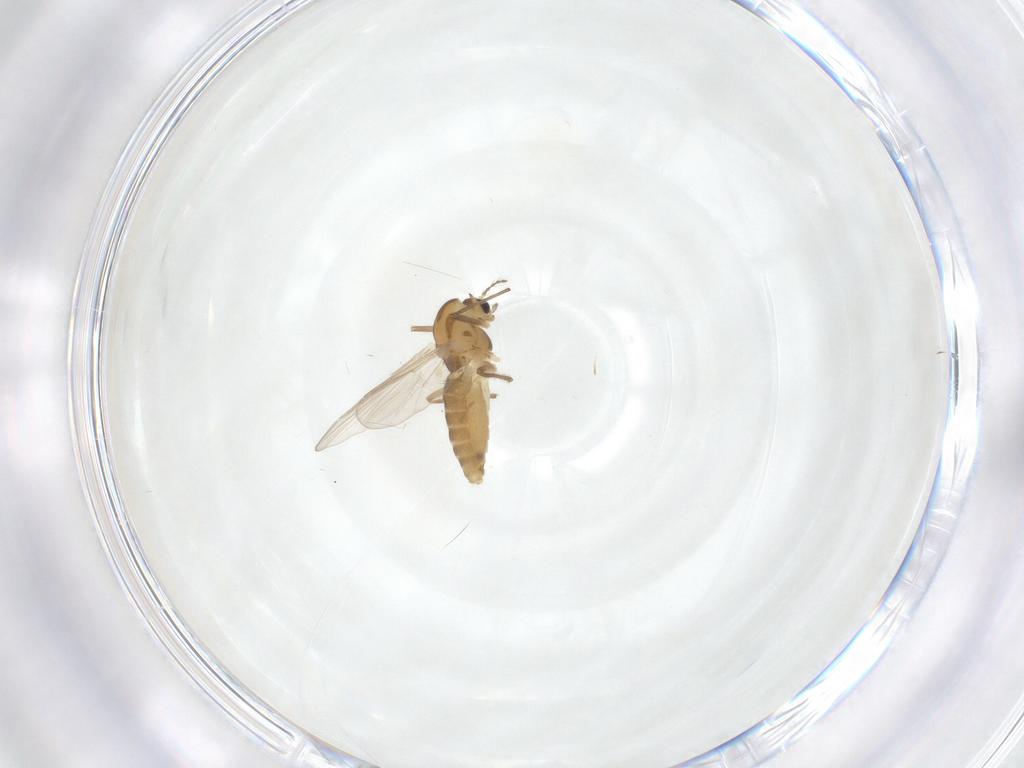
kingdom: Animalia
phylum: Arthropoda
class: Insecta
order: Diptera
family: Chironomidae
